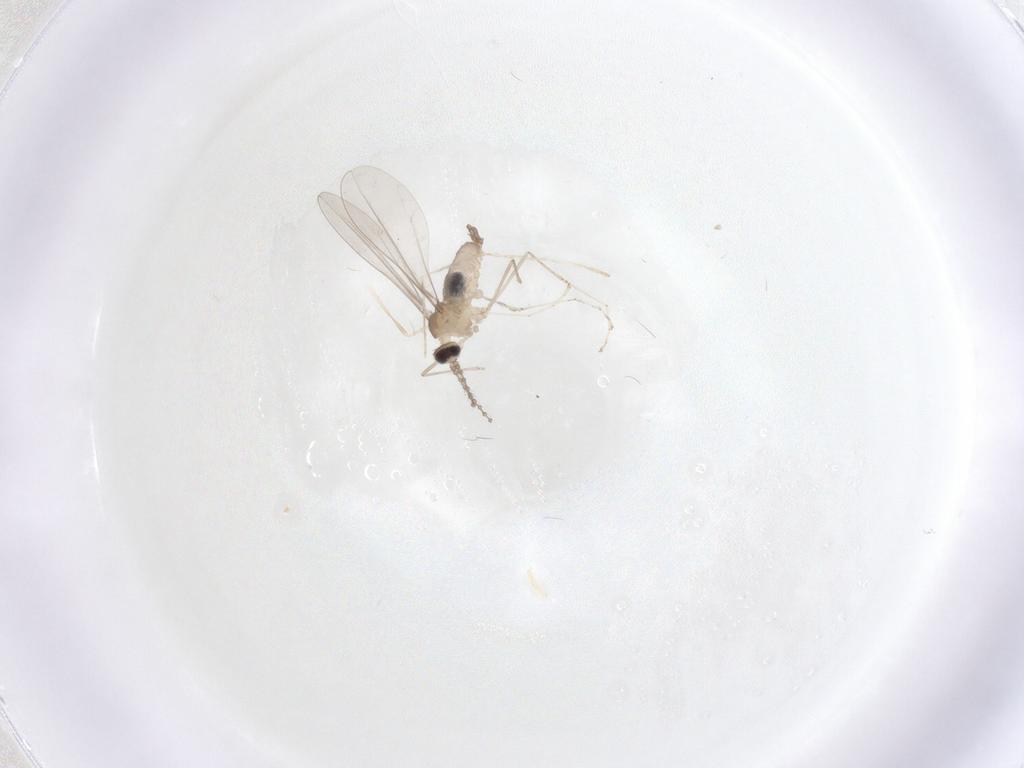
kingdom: Animalia
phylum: Arthropoda
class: Insecta
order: Diptera
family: Cecidomyiidae
